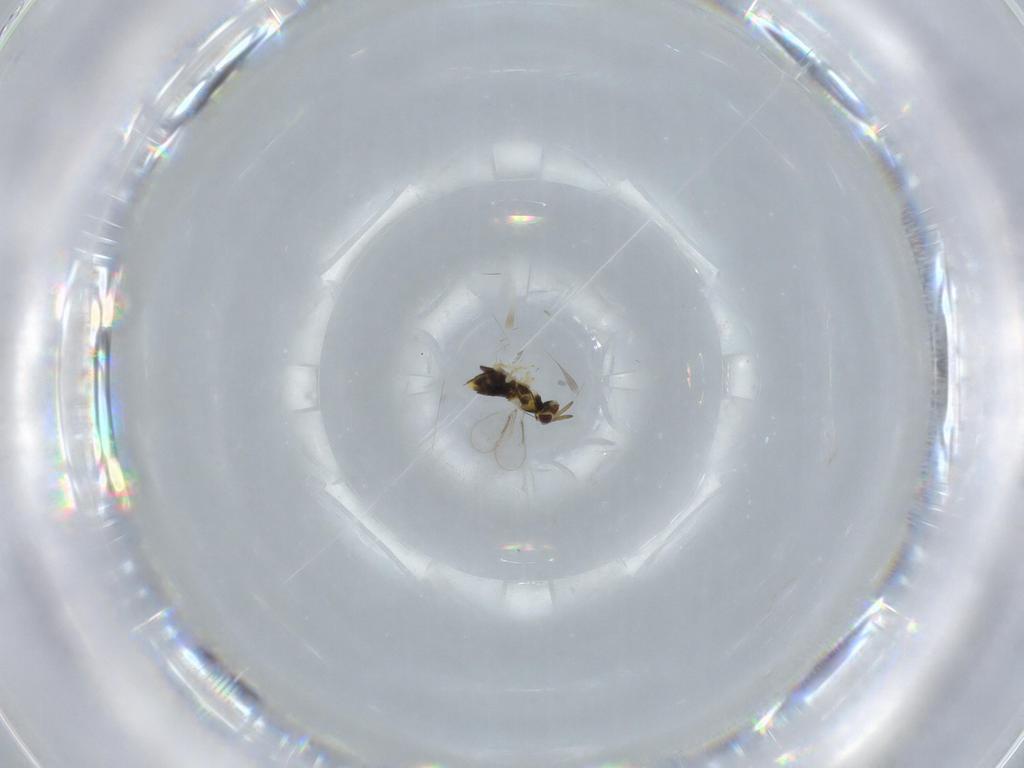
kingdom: Animalia
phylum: Arthropoda
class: Insecta
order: Hymenoptera
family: Aphelinidae
